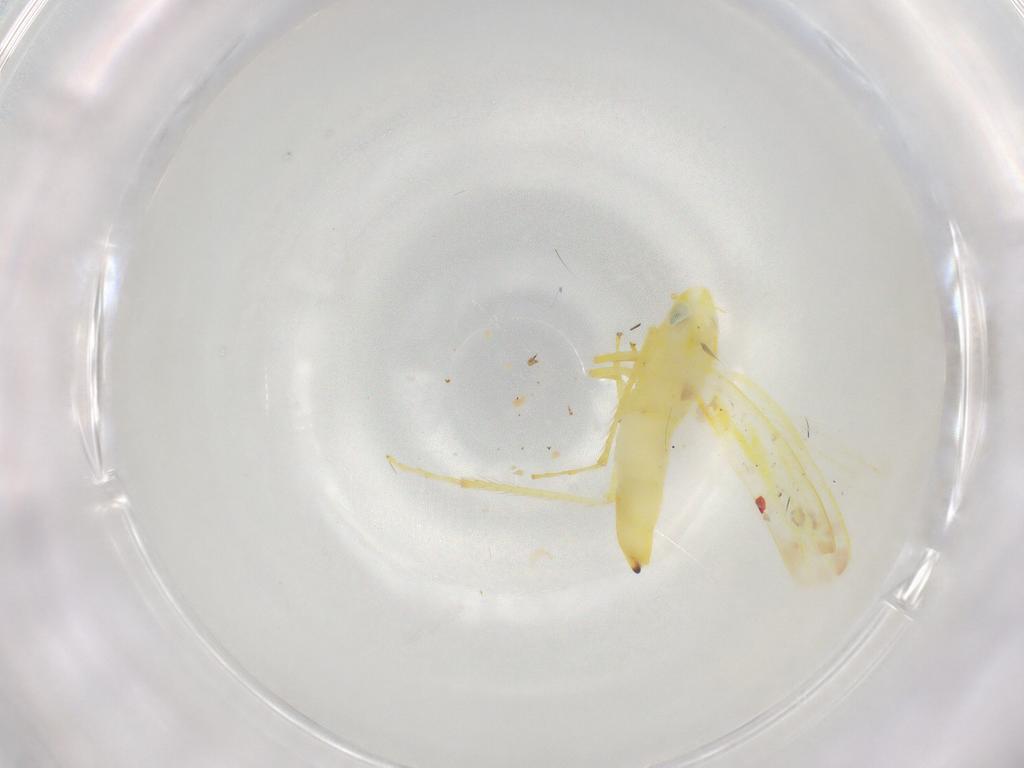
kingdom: Animalia
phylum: Arthropoda
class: Insecta
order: Hemiptera
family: Cicadellidae
